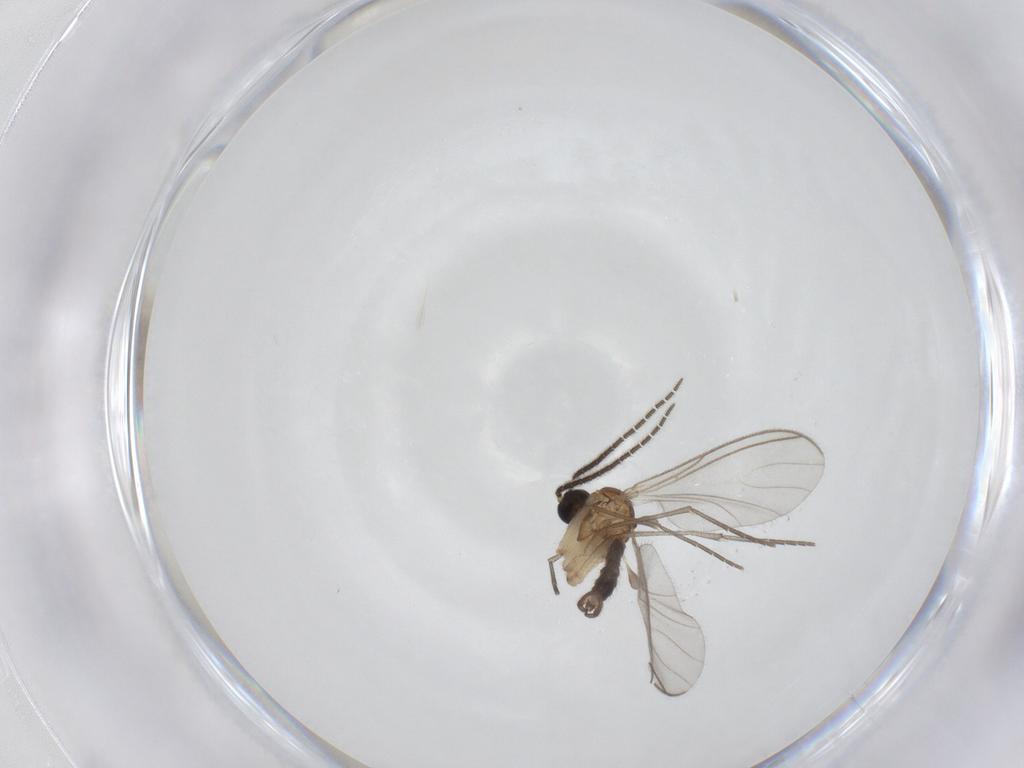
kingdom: Animalia
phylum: Arthropoda
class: Insecta
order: Diptera
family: Sciaridae
